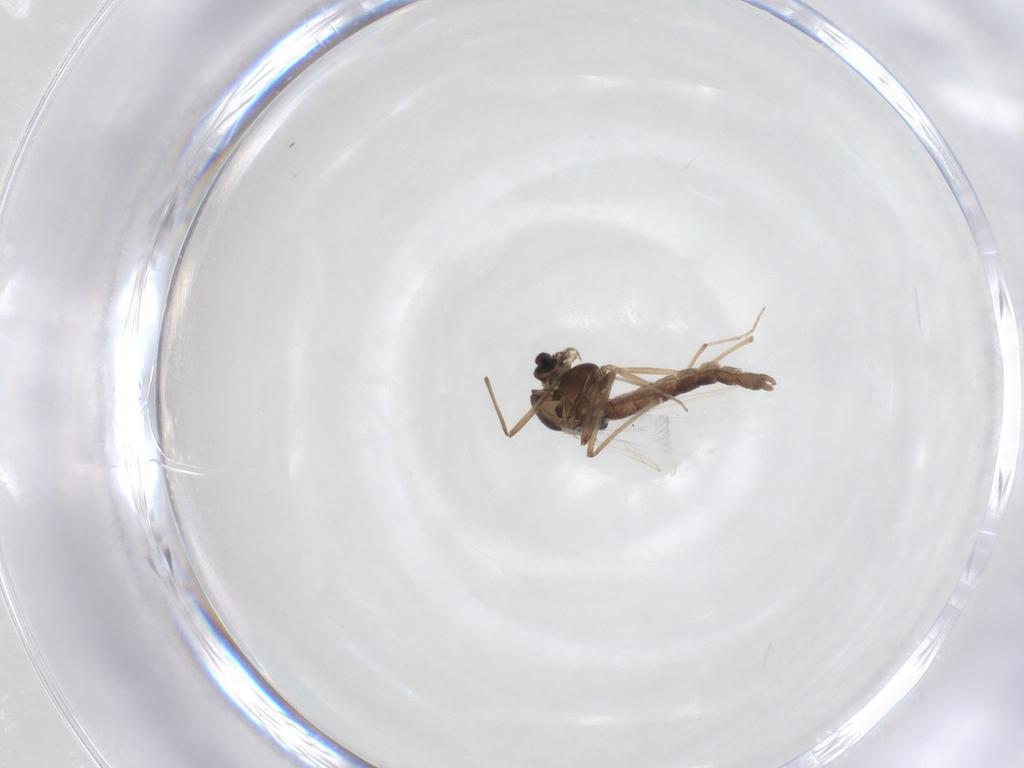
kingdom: Animalia
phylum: Arthropoda
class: Insecta
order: Diptera
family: Chironomidae
